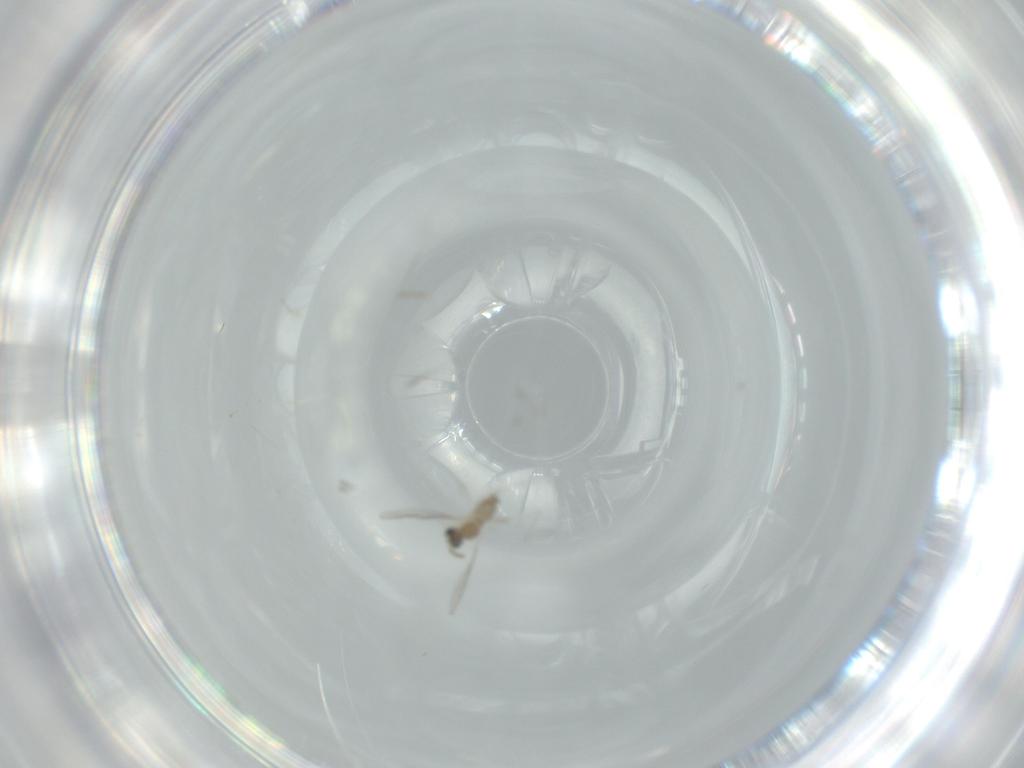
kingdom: Animalia
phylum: Arthropoda
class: Insecta
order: Diptera
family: Cecidomyiidae
